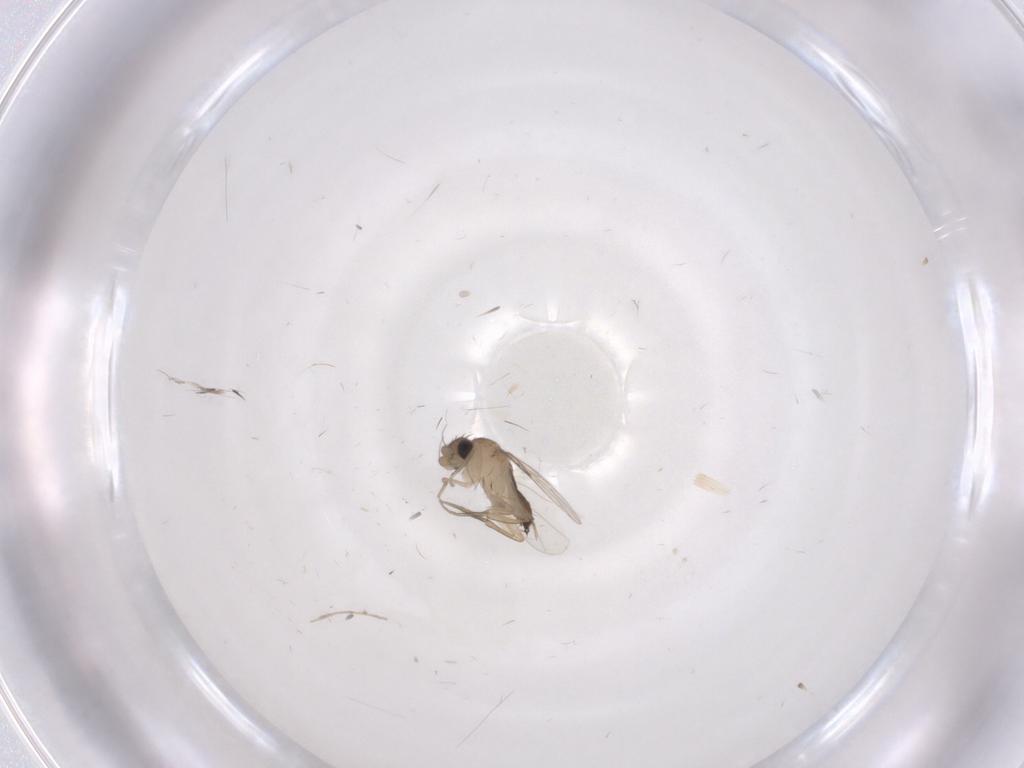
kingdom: Animalia
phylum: Arthropoda
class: Insecta
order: Diptera
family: Phoridae
